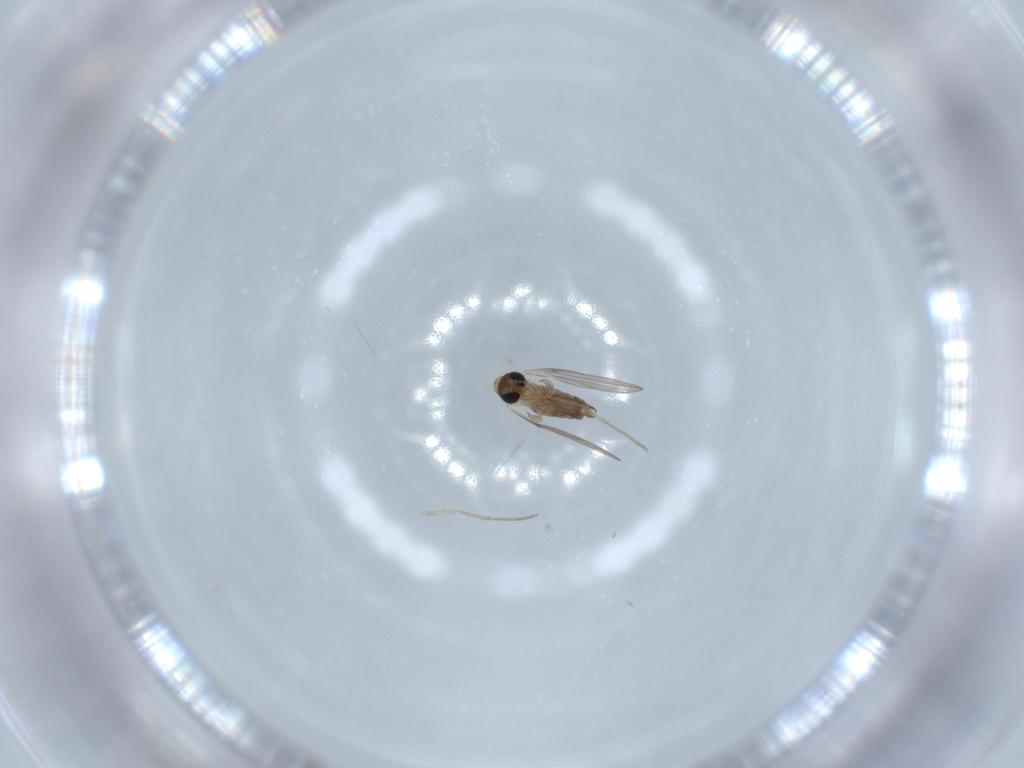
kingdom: Animalia
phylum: Arthropoda
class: Insecta
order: Diptera
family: Psychodidae
